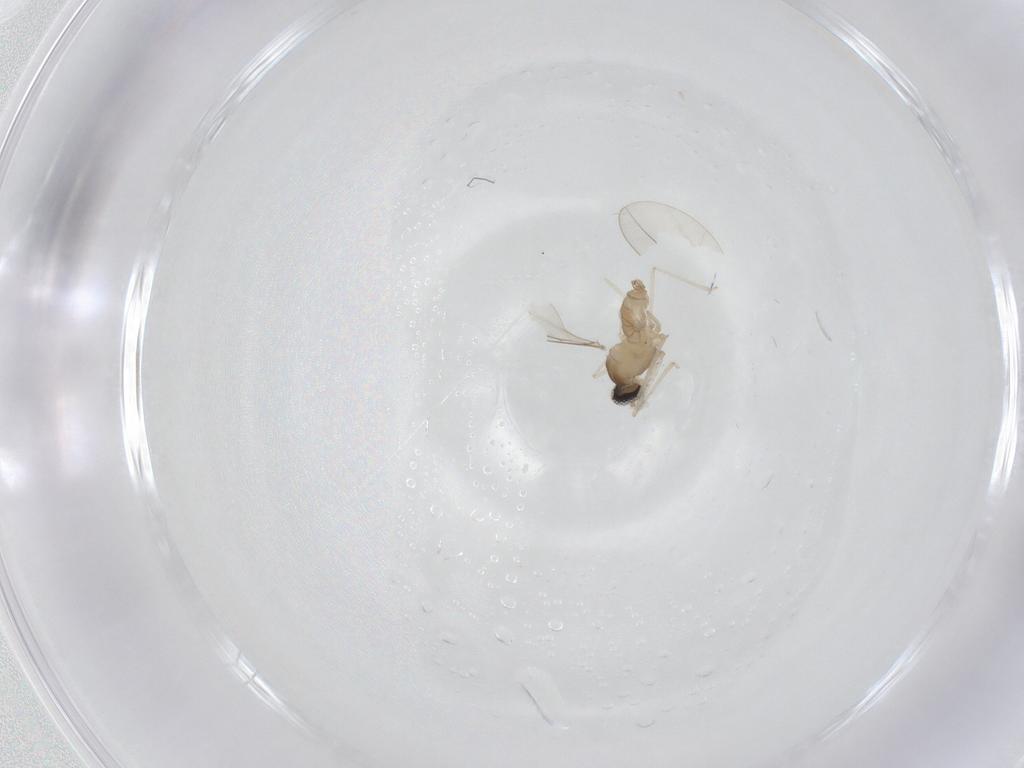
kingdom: Animalia
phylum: Arthropoda
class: Insecta
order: Diptera
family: Cecidomyiidae
